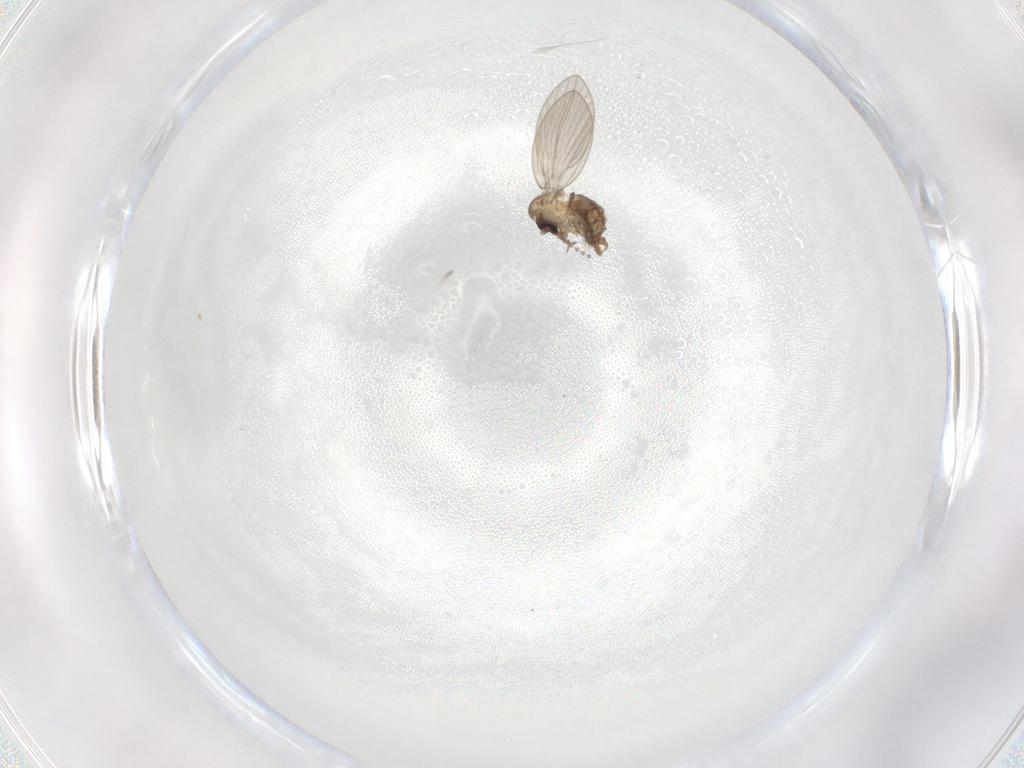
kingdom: Animalia
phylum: Arthropoda
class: Insecta
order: Diptera
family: Psychodidae
